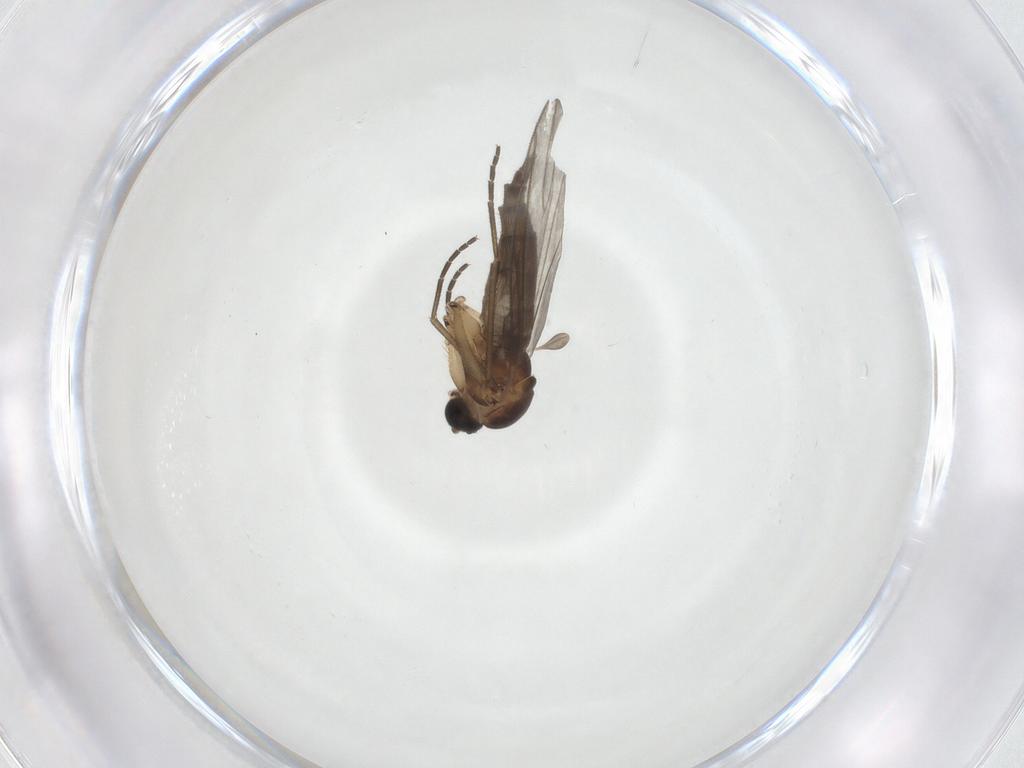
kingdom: Animalia
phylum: Arthropoda
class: Insecta
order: Diptera
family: Sciaridae
